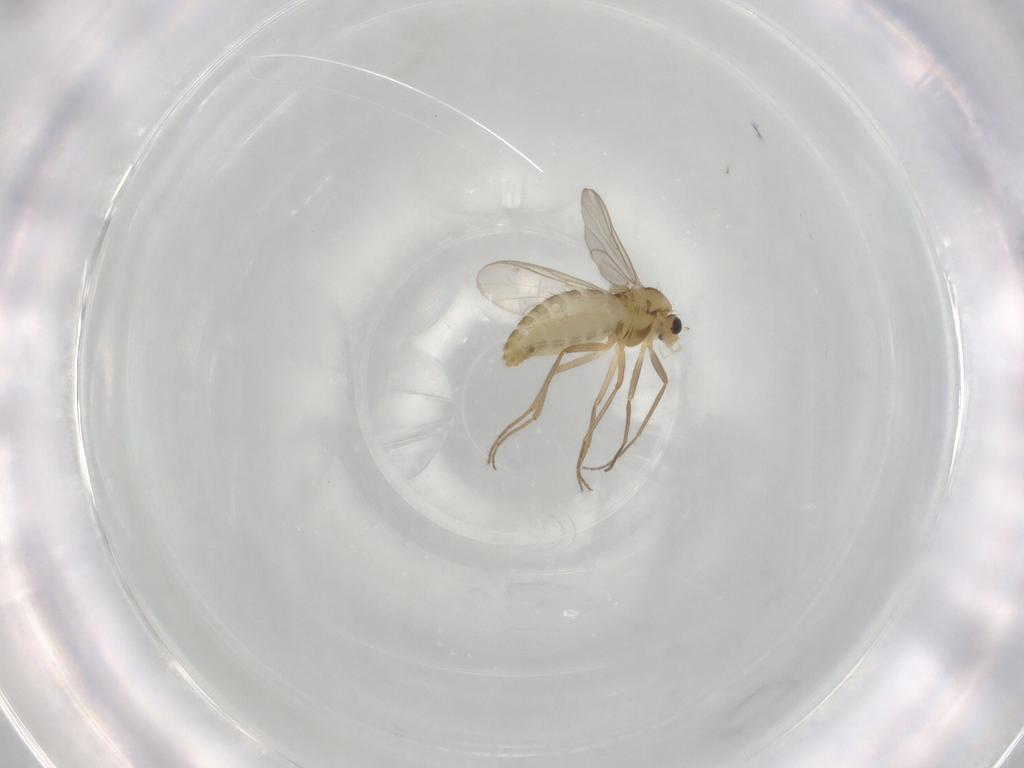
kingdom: Animalia
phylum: Arthropoda
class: Insecta
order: Diptera
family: Chironomidae
